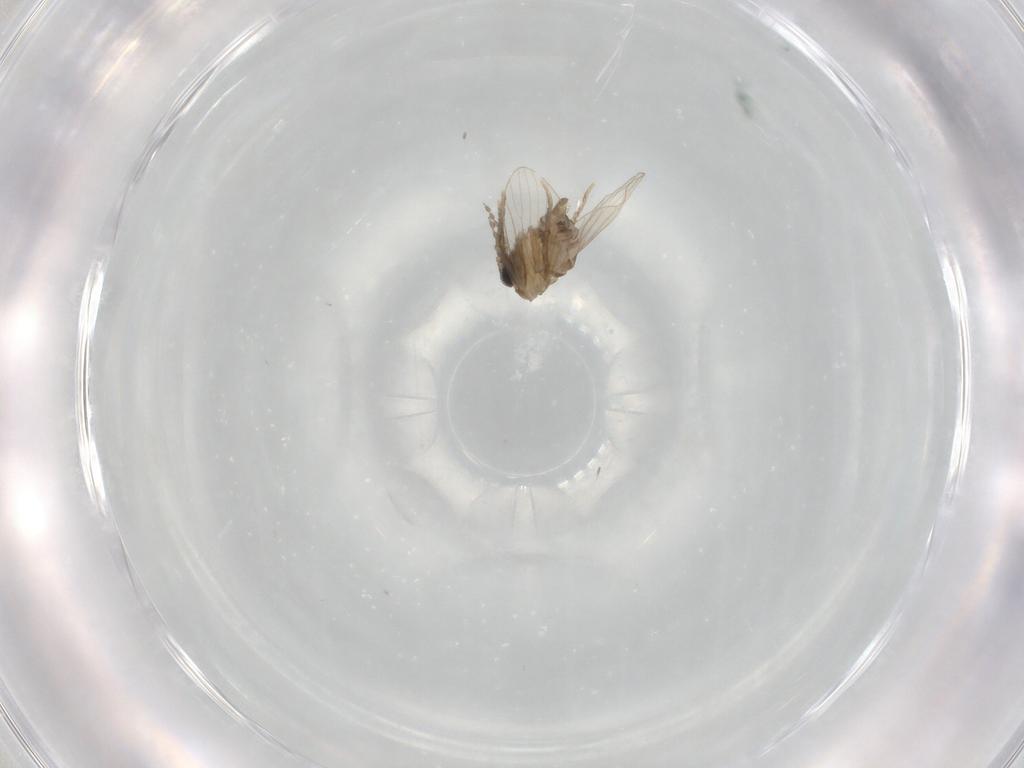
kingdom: Animalia
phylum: Arthropoda
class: Insecta
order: Diptera
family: Psychodidae
